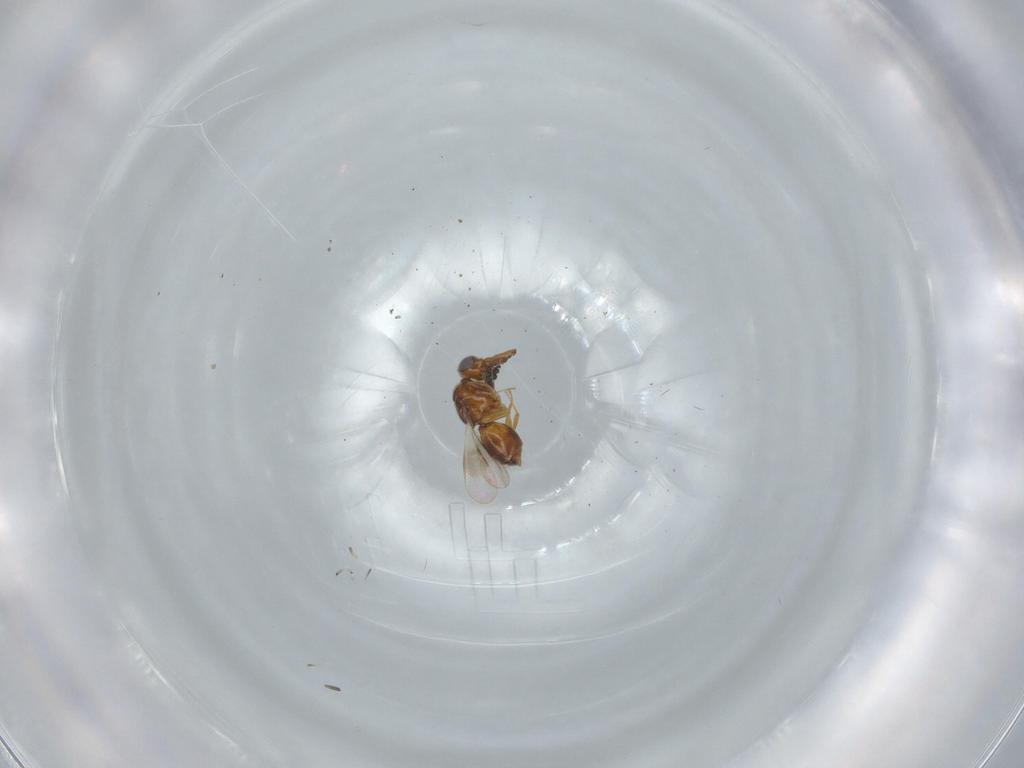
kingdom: Animalia
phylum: Arthropoda
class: Insecta
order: Hymenoptera
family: Ceraphronidae
